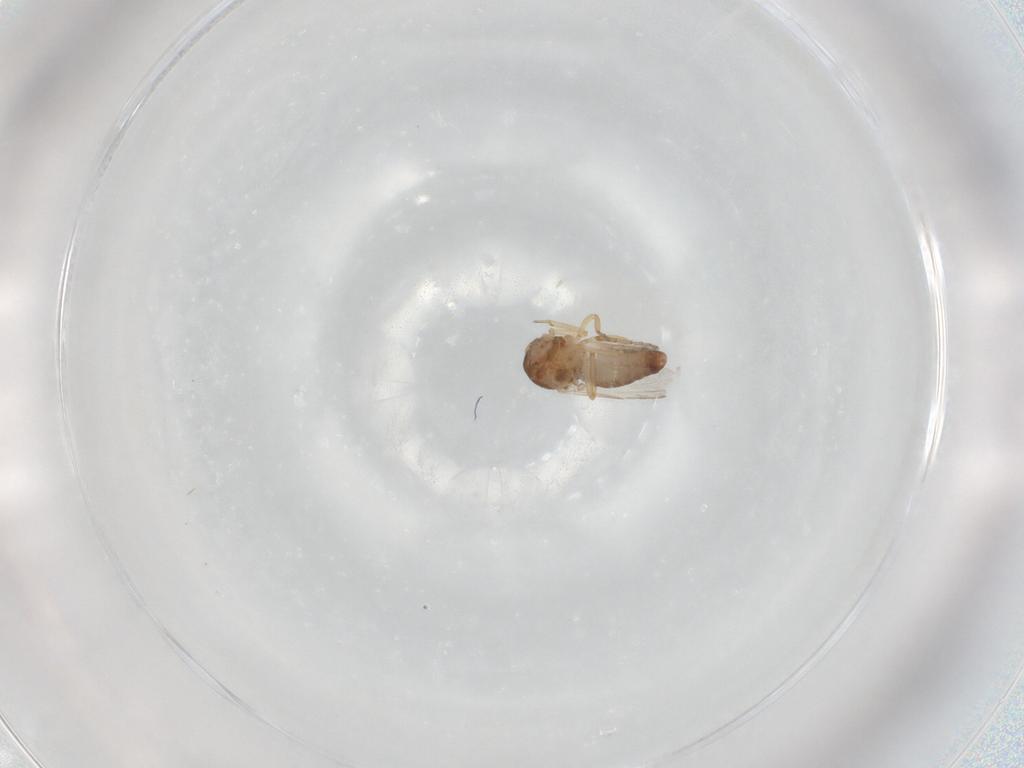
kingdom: Animalia
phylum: Arthropoda
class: Insecta
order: Diptera
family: Ceratopogonidae
